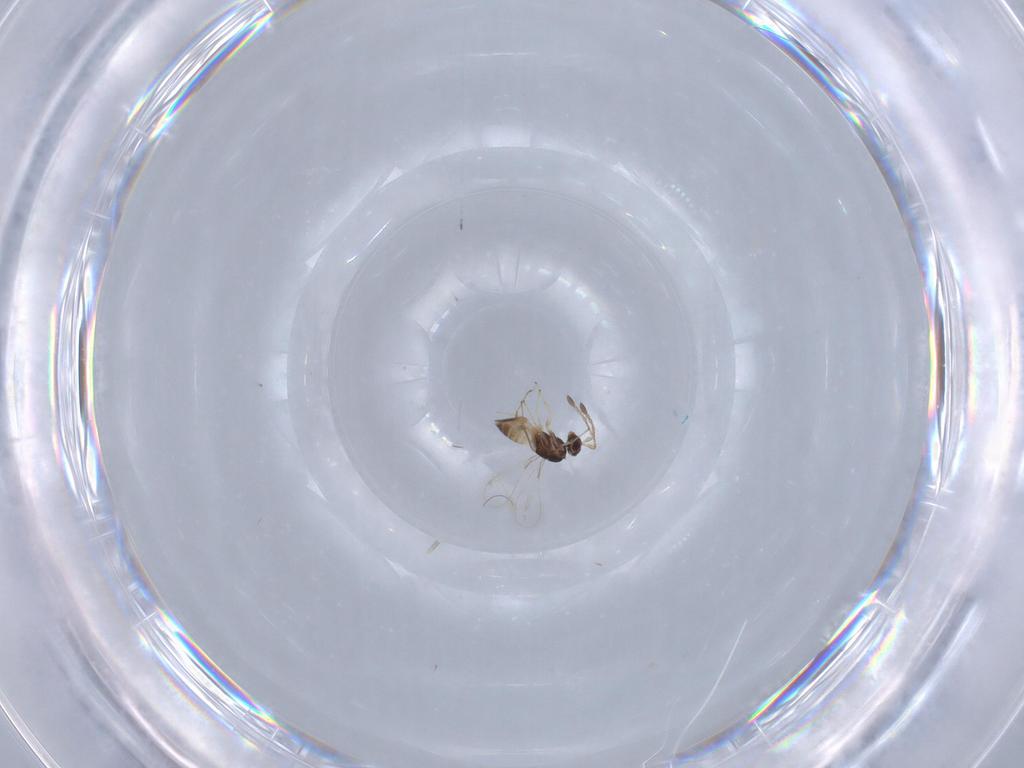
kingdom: Animalia
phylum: Arthropoda
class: Insecta
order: Hymenoptera
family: Mymaridae
